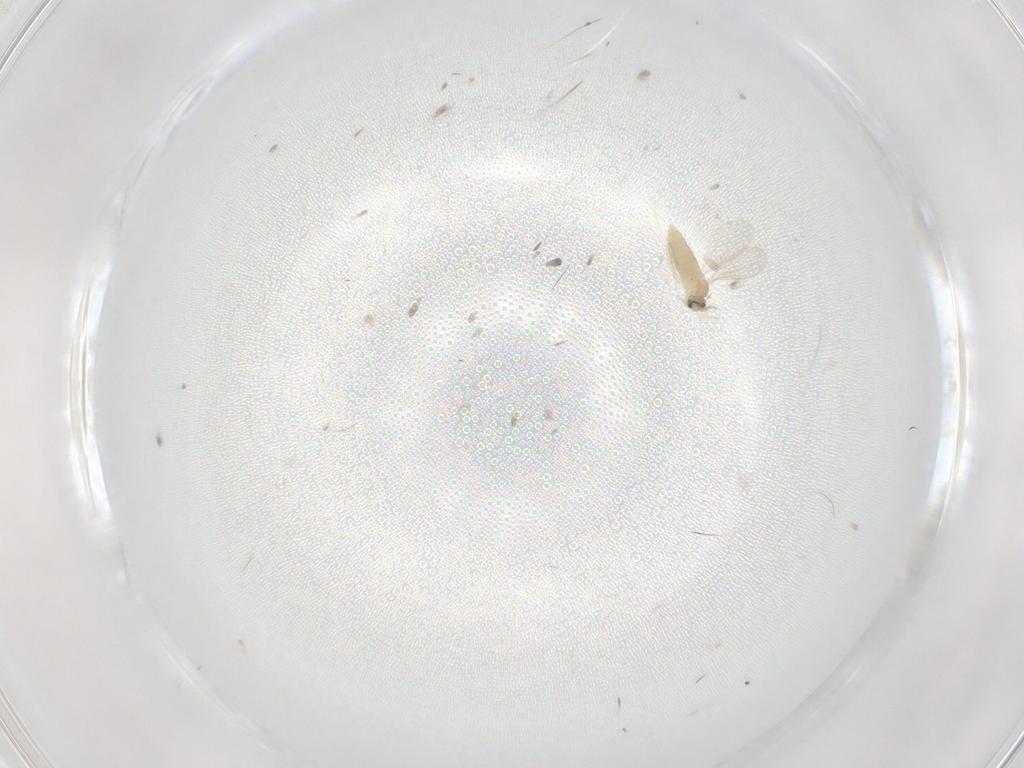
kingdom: Animalia
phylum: Arthropoda
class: Insecta
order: Diptera
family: Cecidomyiidae
